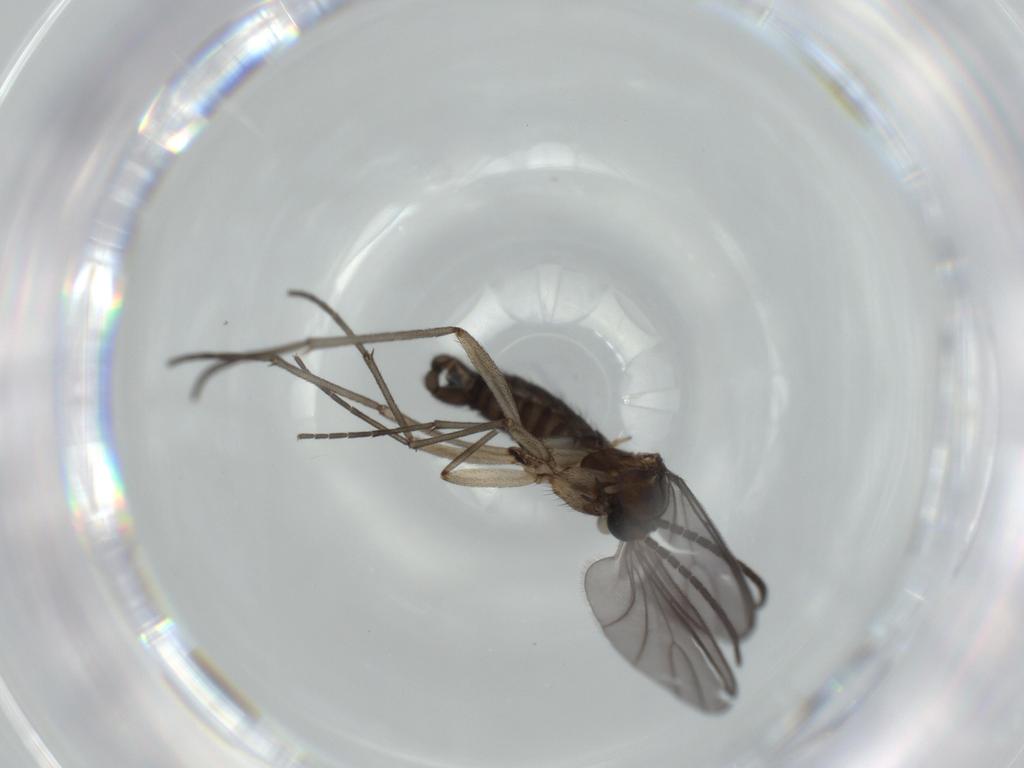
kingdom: Animalia
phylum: Arthropoda
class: Insecta
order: Diptera
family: Sciaridae
